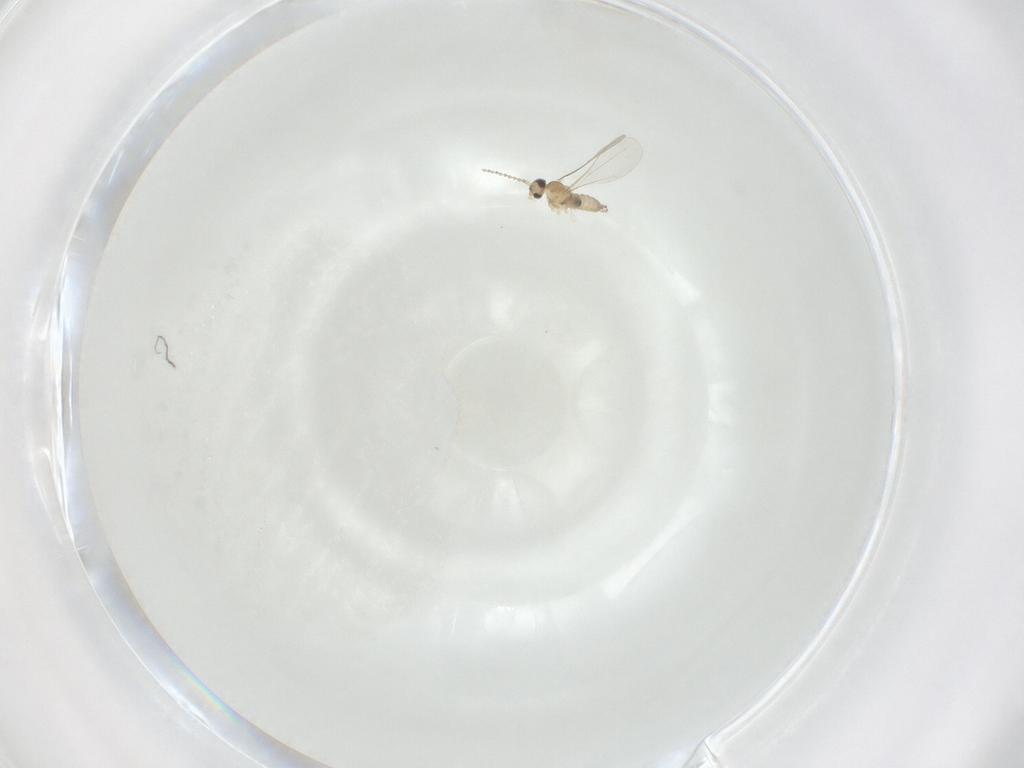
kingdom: Animalia
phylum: Arthropoda
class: Insecta
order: Diptera
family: Cecidomyiidae
